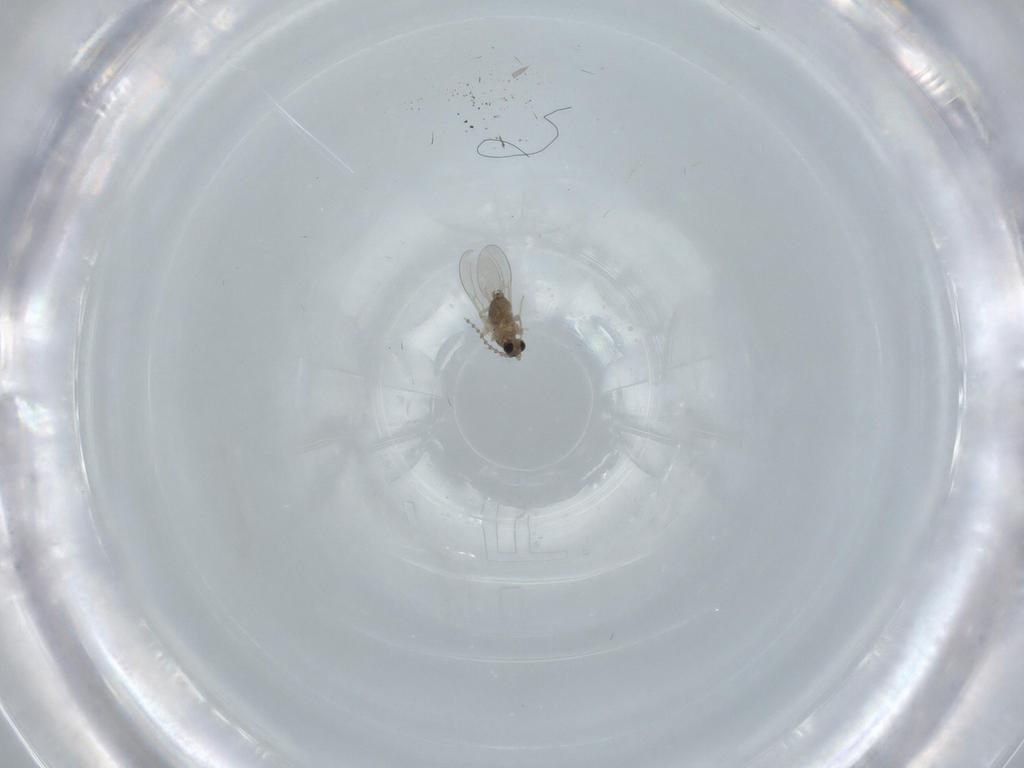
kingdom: Animalia
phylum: Arthropoda
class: Insecta
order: Diptera
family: Cecidomyiidae
